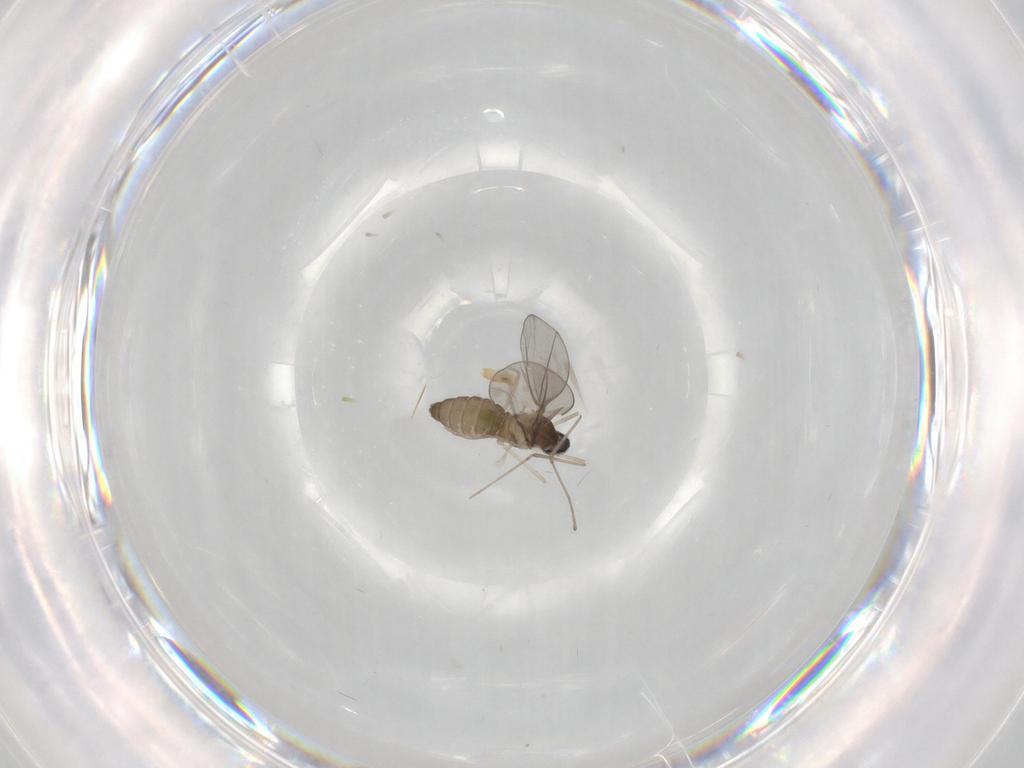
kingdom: Animalia
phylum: Arthropoda
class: Insecta
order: Diptera
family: Cecidomyiidae
